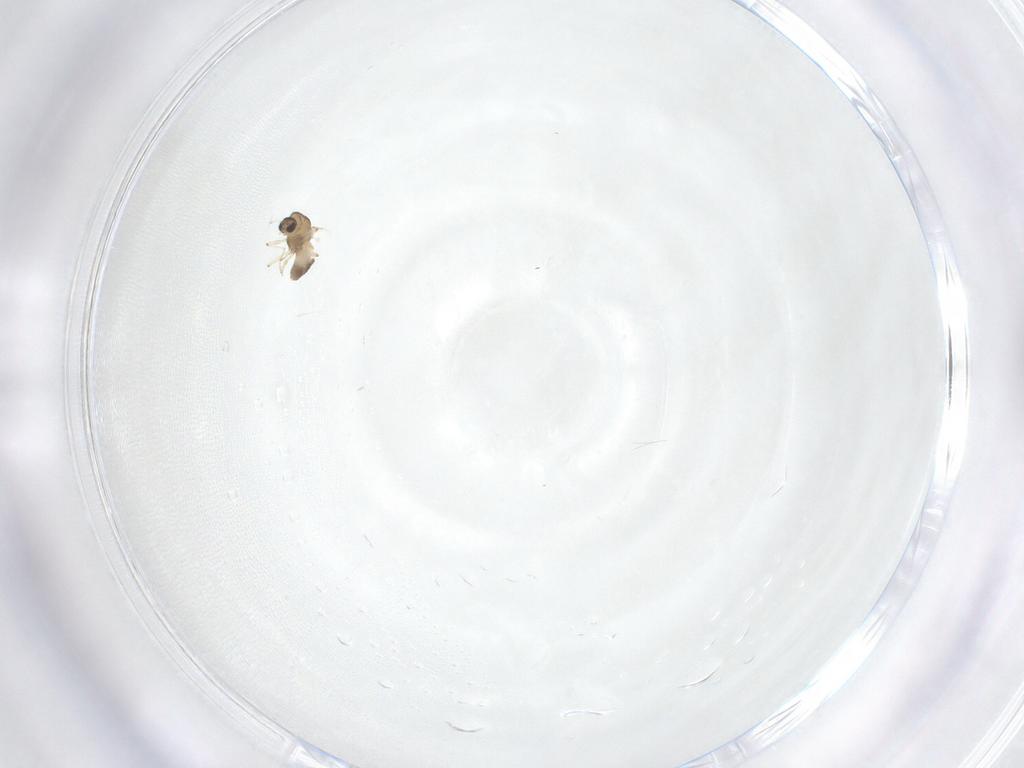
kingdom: Animalia
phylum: Arthropoda
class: Insecta
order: Diptera
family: Chironomidae
